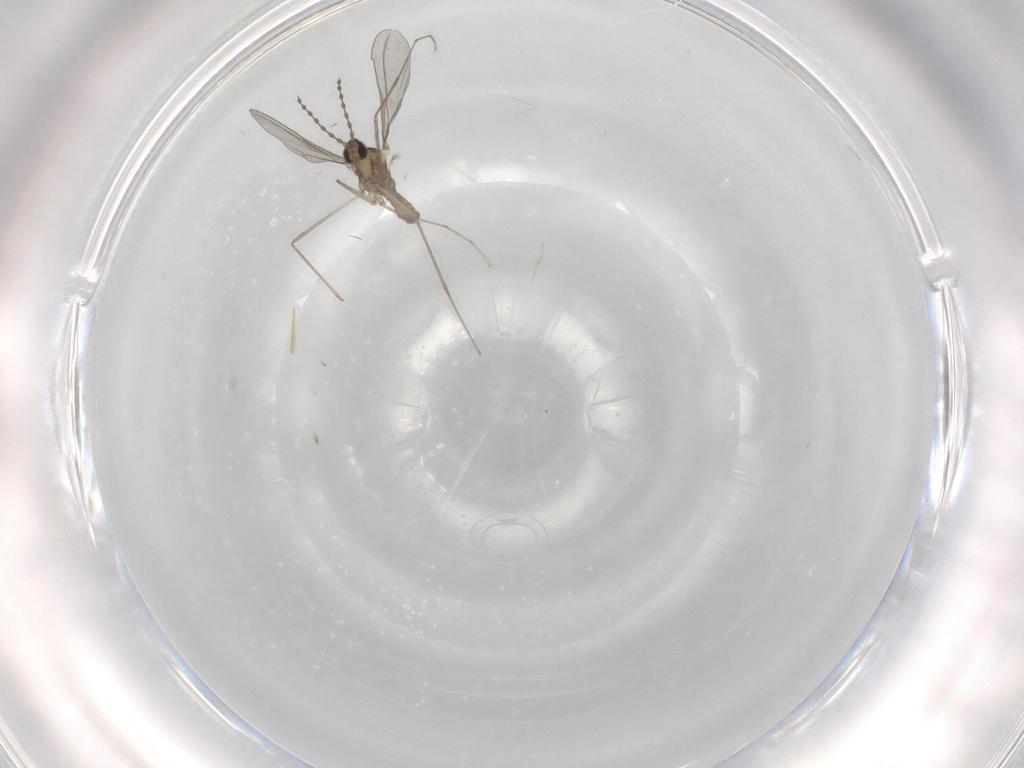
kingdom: Animalia
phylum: Arthropoda
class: Insecta
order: Diptera
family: Cecidomyiidae
